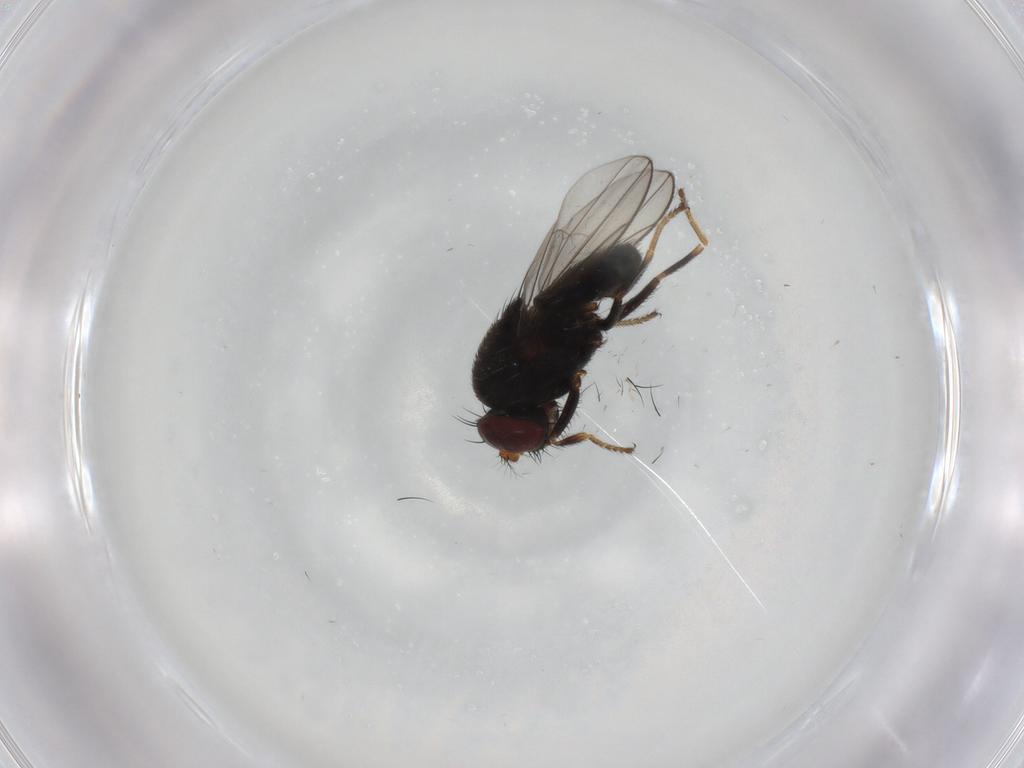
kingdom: Animalia
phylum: Arthropoda
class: Insecta
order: Diptera
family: Ephydridae
